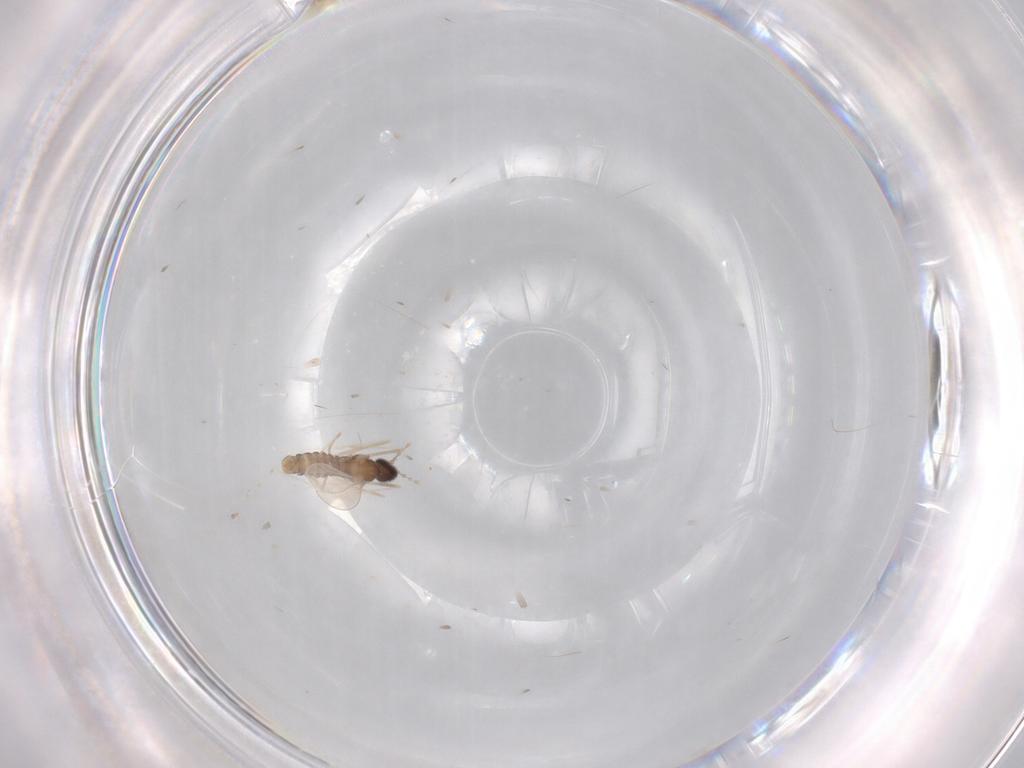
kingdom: Animalia
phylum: Arthropoda
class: Insecta
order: Diptera
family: Cecidomyiidae
